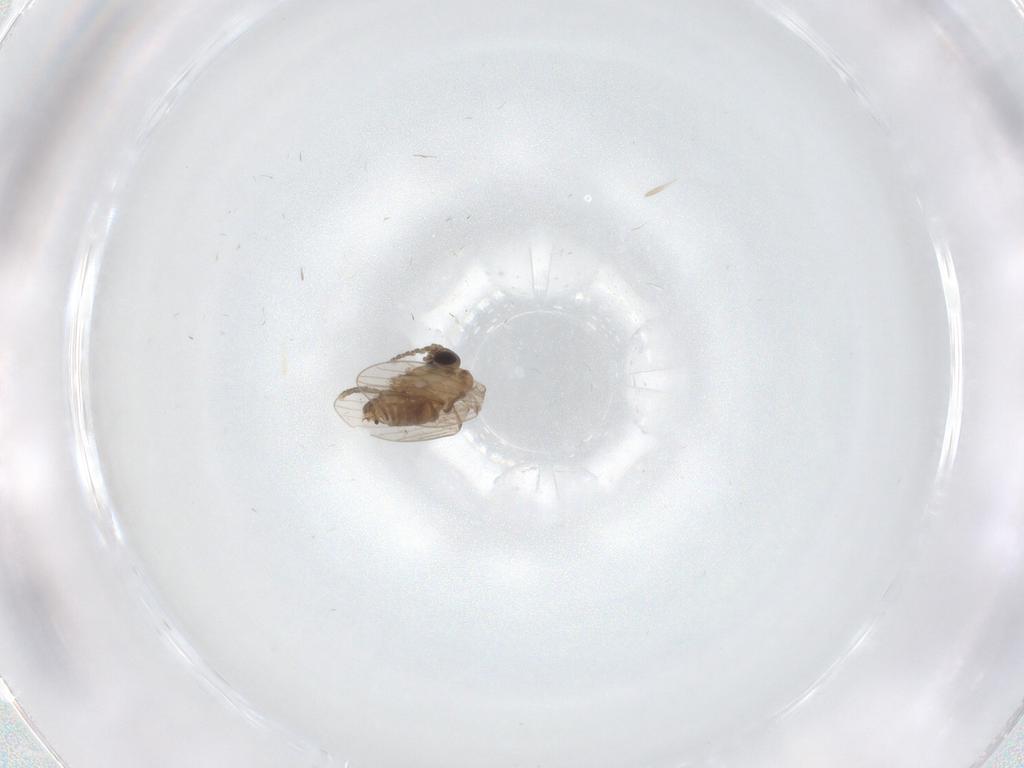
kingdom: Animalia
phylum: Arthropoda
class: Insecta
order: Diptera
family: Psychodidae
